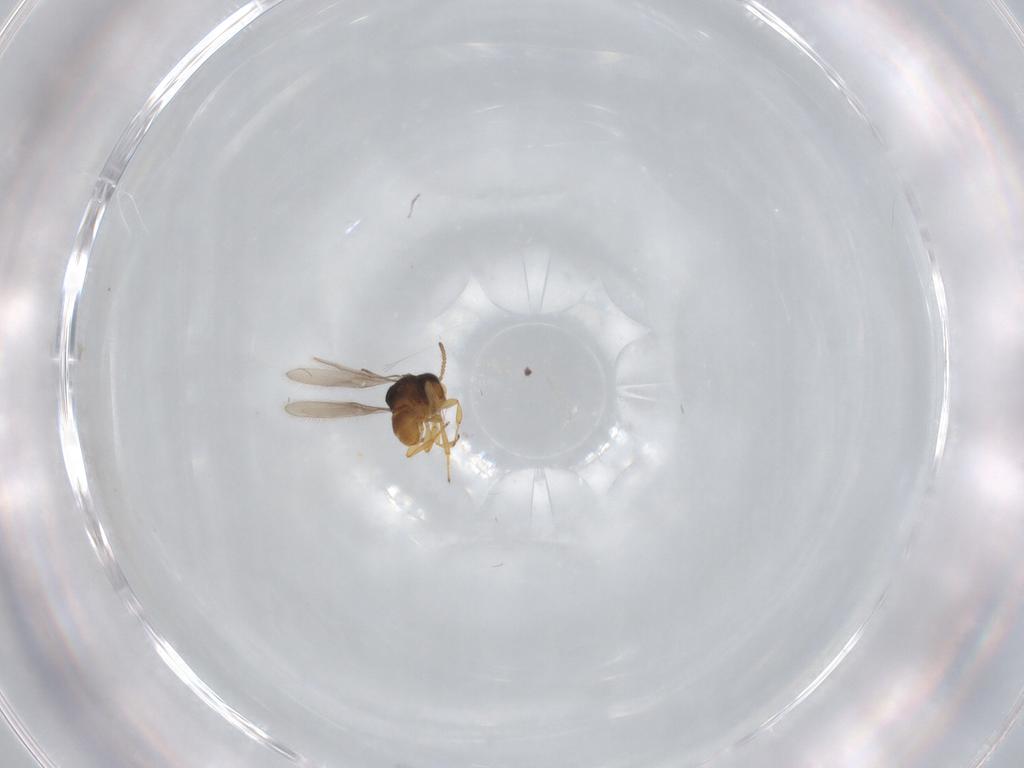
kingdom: Animalia
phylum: Arthropoda
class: Insecta
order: Hymenoptera
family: Scelionidae
